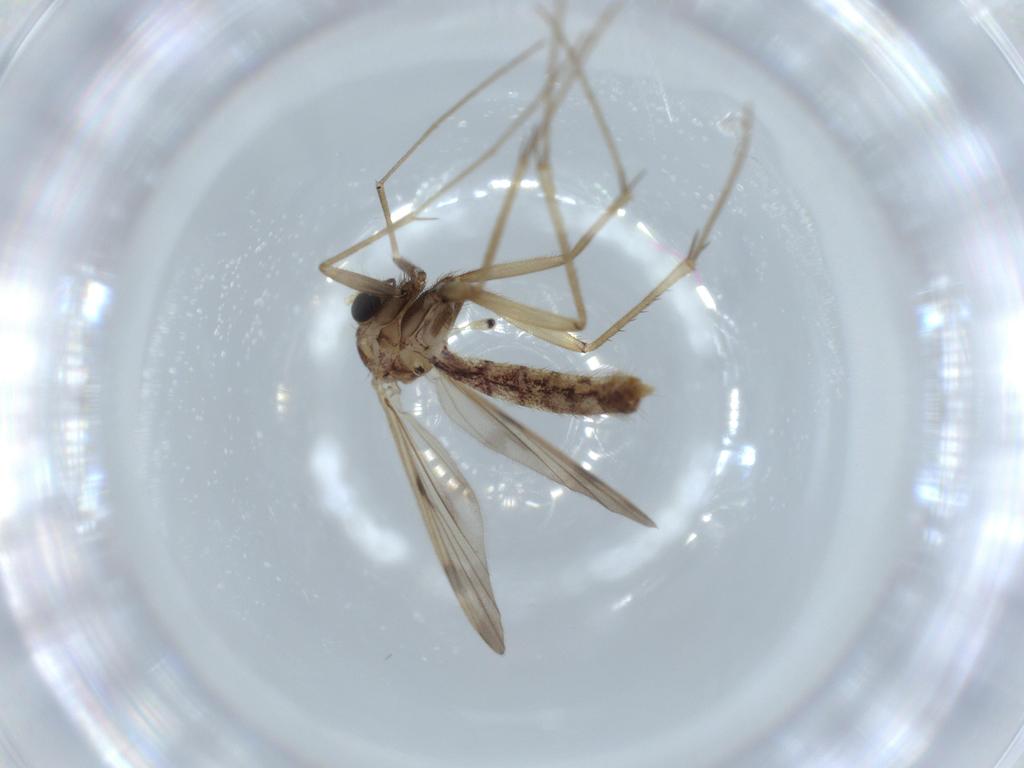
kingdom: Animalia
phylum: Arthropoda
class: Insecta
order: Diptera
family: Mycetophilidae
